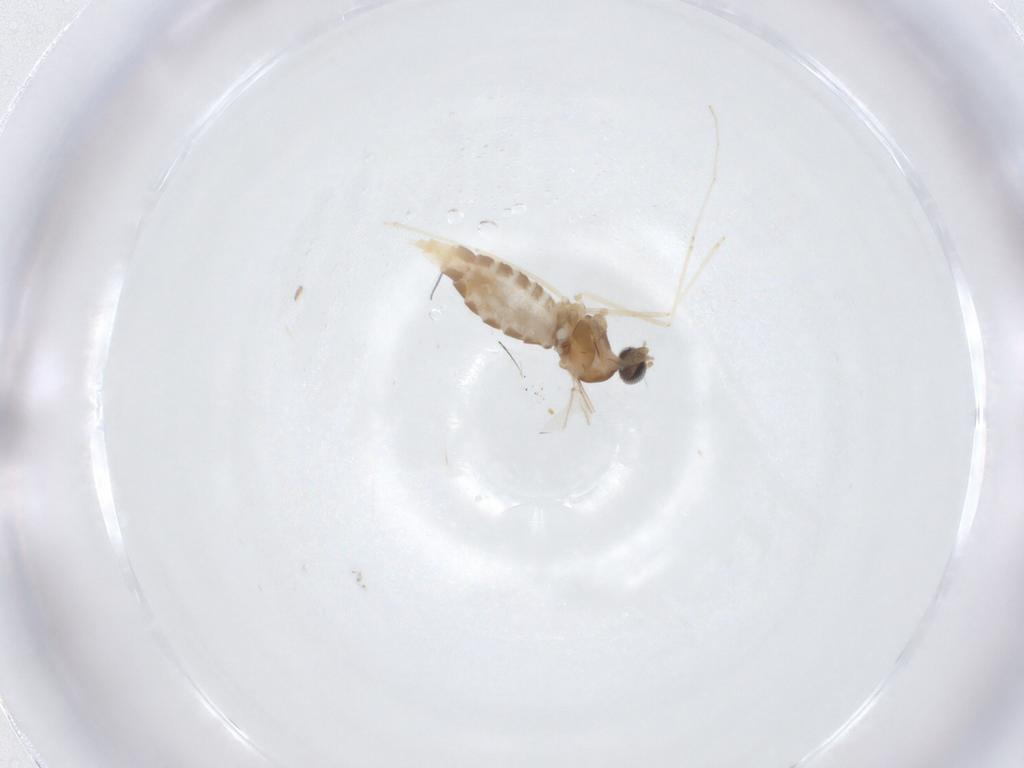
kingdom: Animalia
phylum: Arthropoda
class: Insecta
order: Diptera
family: Cecidomyiidae
